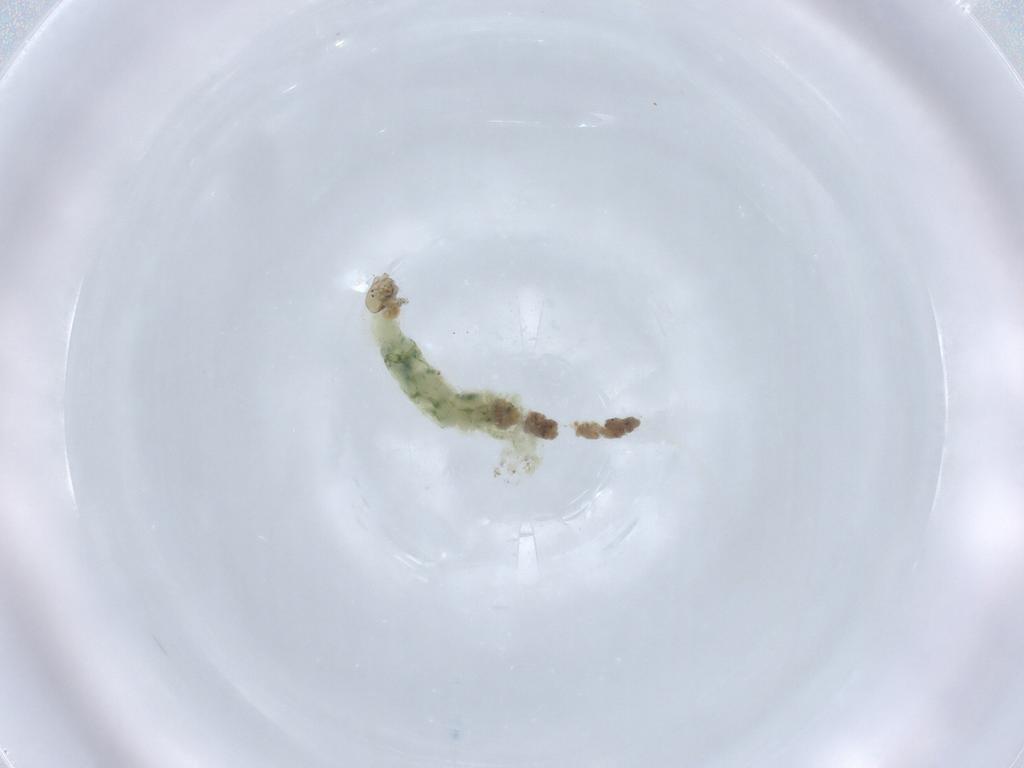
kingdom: Animalia
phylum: Arthropoda
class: Insecta
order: Diptera
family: Chironomidae
